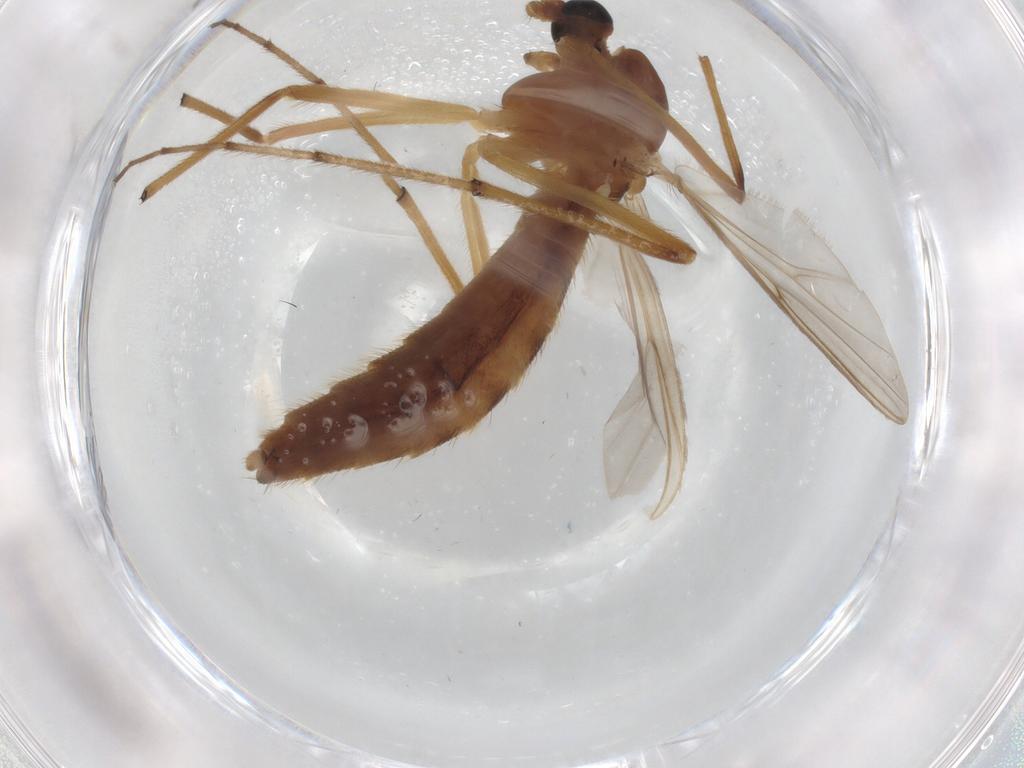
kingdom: Animalia
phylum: Arthropoda
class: Insecta
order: Diptera
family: Chironomidae
